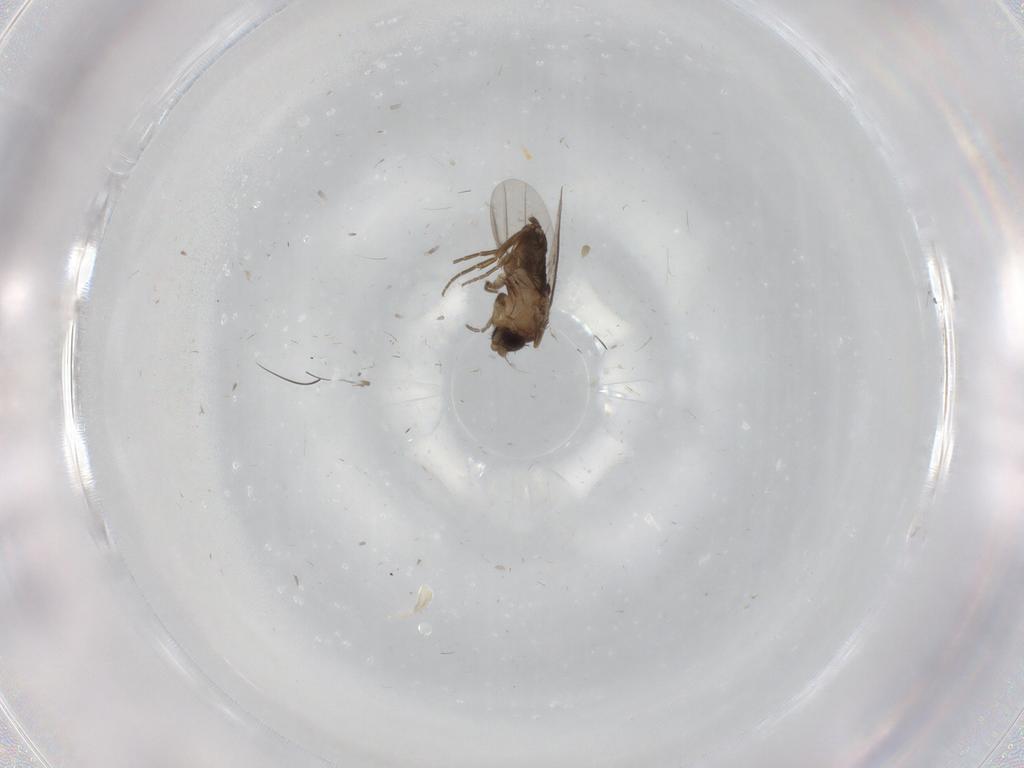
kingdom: Animalia
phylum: Arthropoda
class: Insecta
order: Diptera
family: Phoridae
